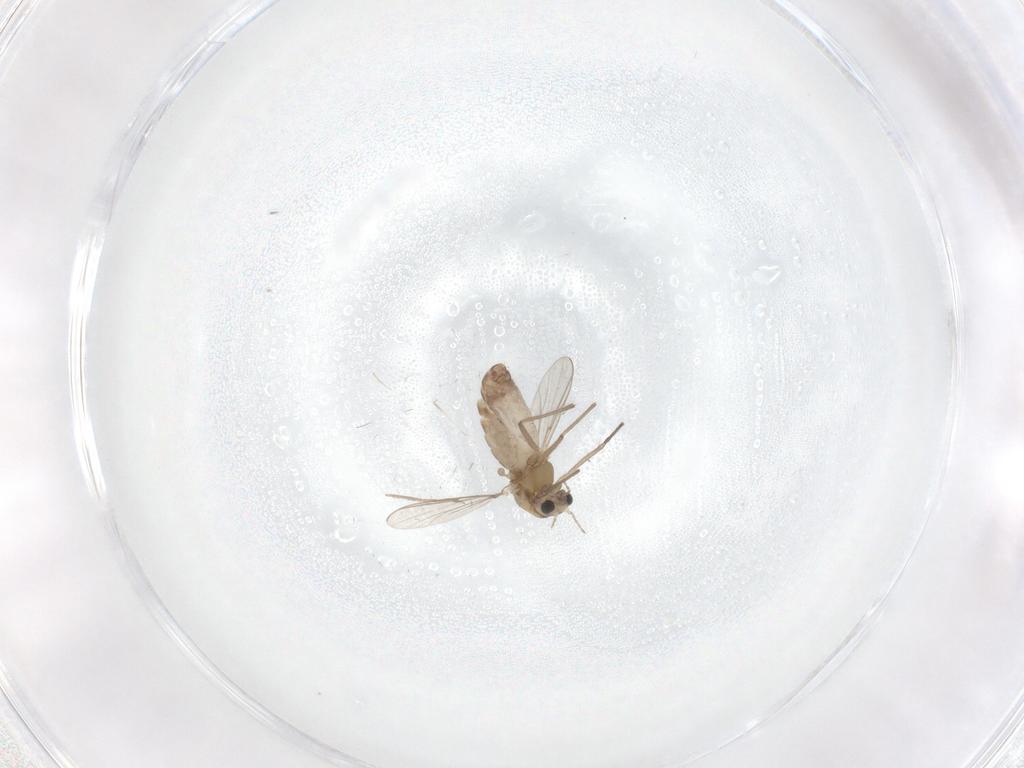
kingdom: Animalia
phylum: Arthropoda
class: Insecta
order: Diptera
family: Chironomidae
